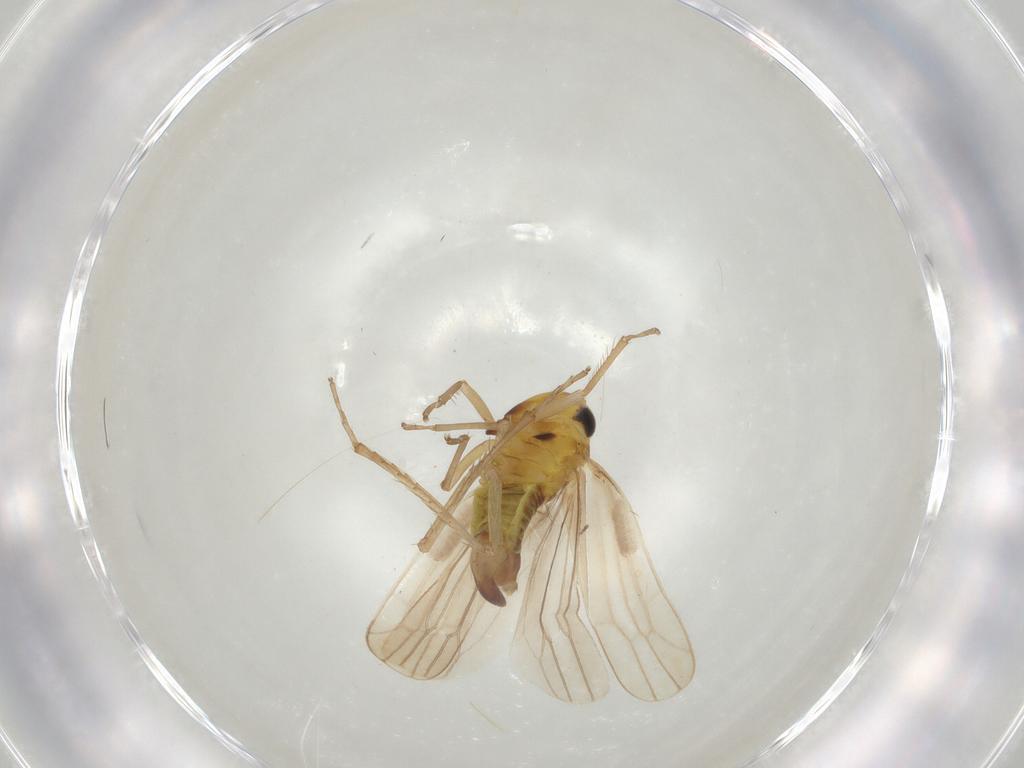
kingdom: Animalia
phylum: Arthropoda
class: Insecta
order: Hemiptera
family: Cicadellidae
